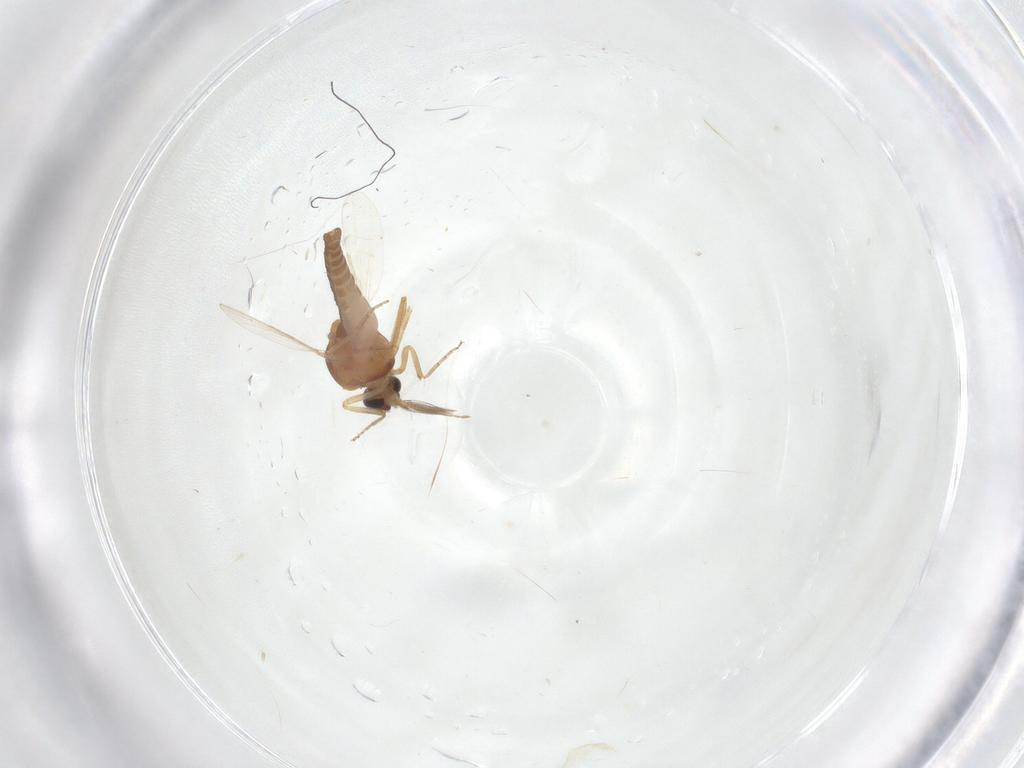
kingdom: Animalia
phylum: Arthropoda
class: Insecta
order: Diptera
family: Ceratopogonidae
